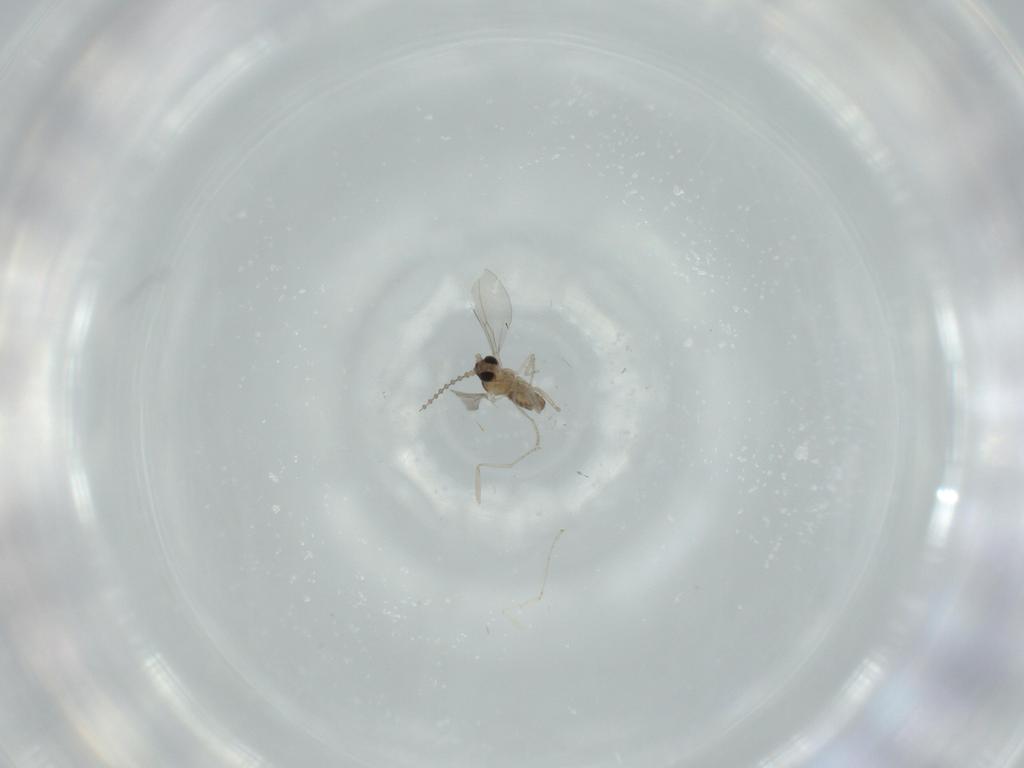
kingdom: Animalia
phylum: Arthropoda
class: Insecta
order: Diptera
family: Cecidomyiidae
